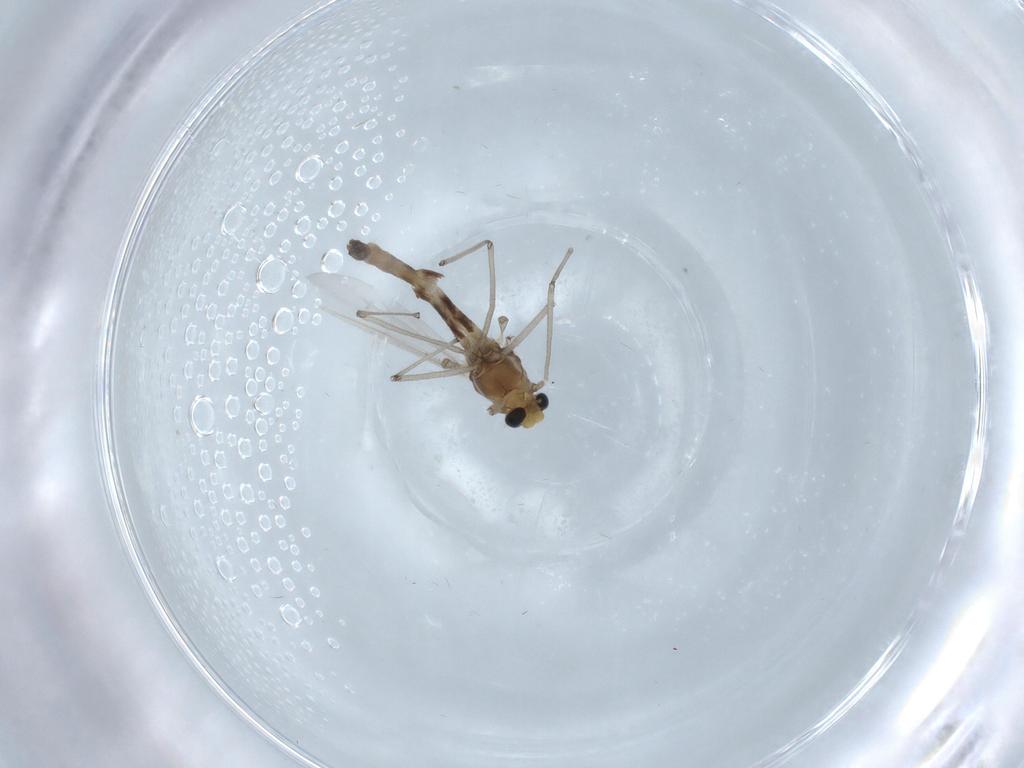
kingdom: Animalia
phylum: Arthropoda
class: Insecta
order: Diptera
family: Chironomidae
